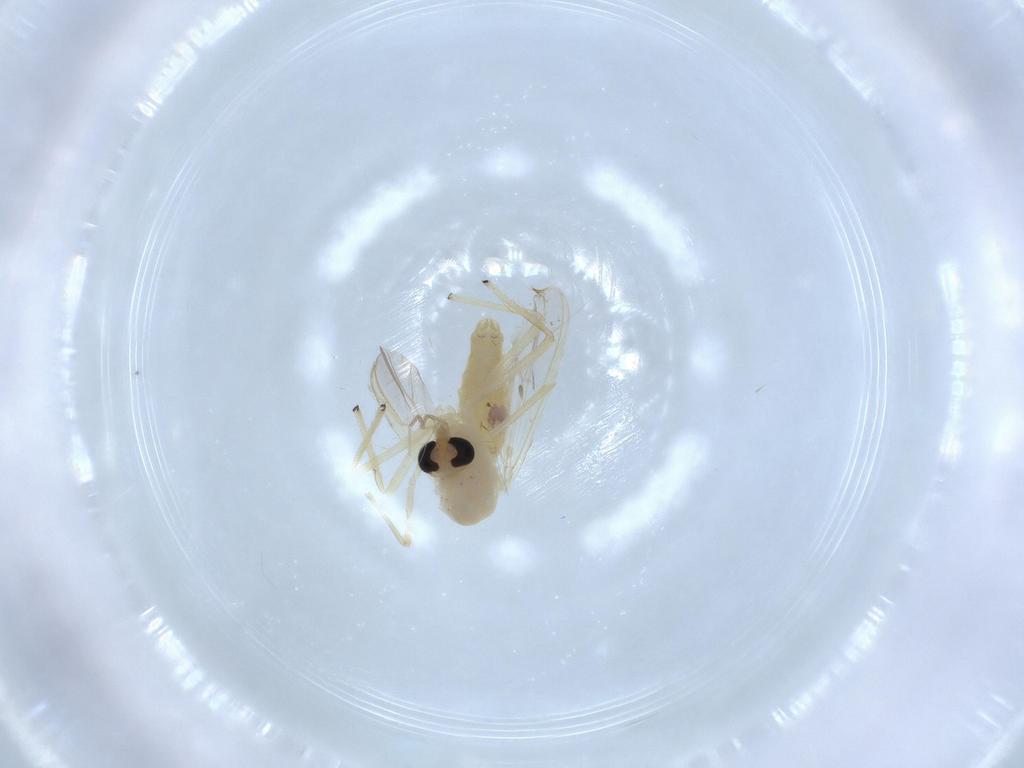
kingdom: Animalia
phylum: Arthropoda
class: Insecta
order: Diptera
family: Chironomidae
